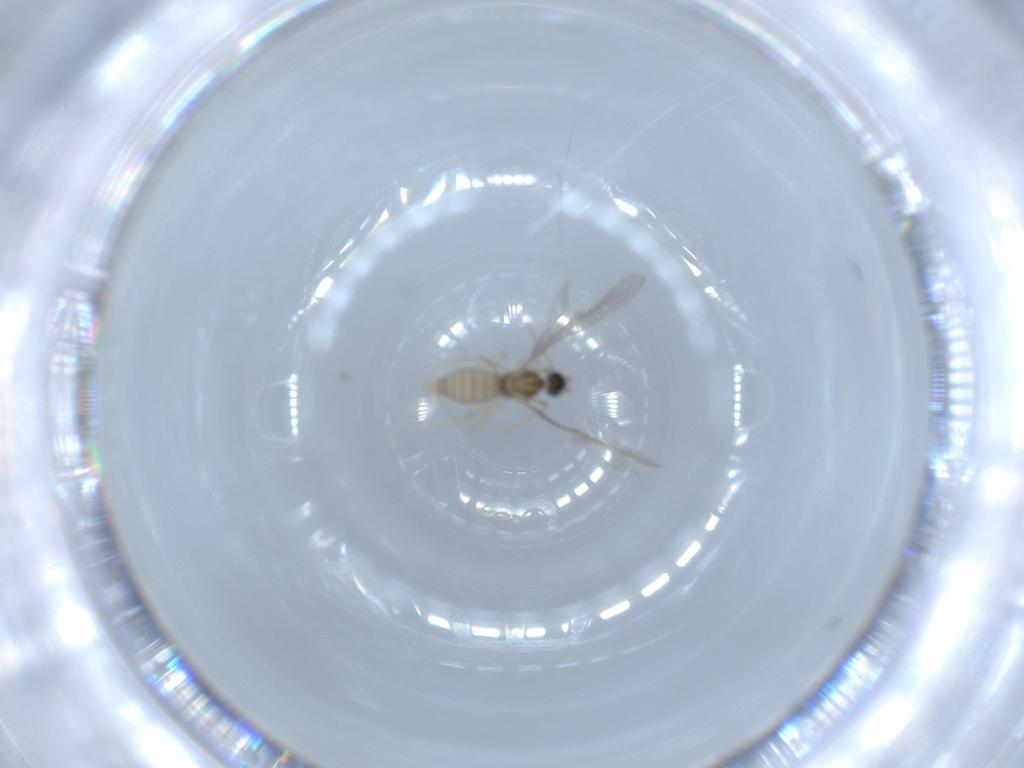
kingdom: Animalia
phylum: Arthropoda
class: Insecta
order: Diptera
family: Cecidomyiidae
